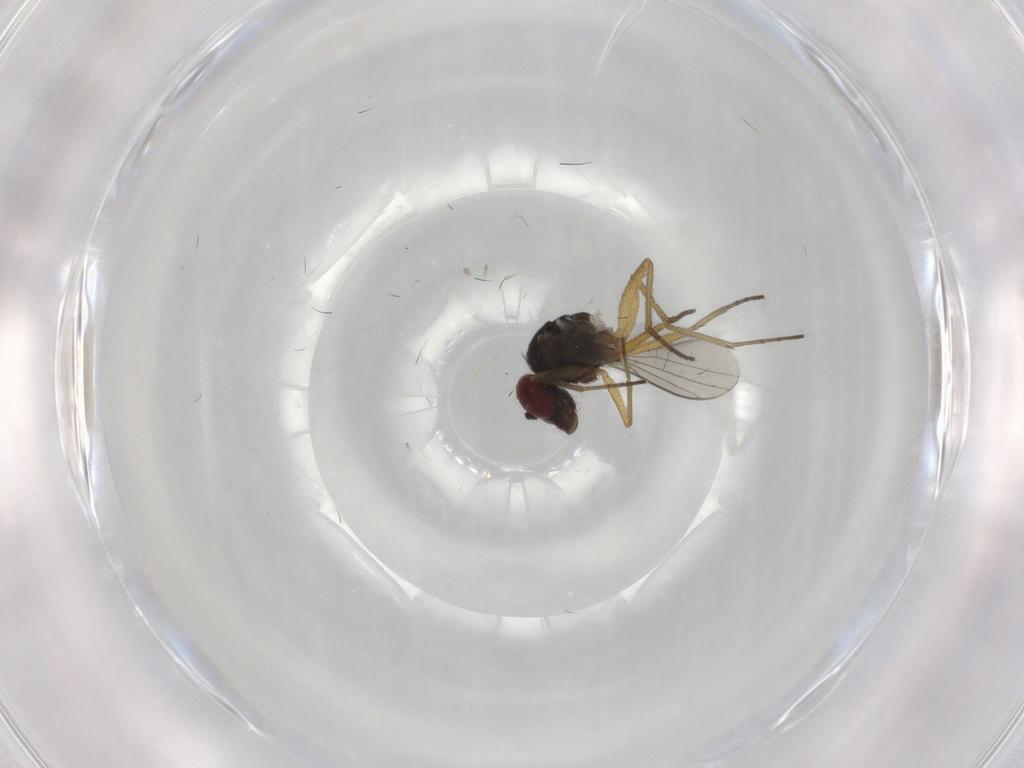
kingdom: Animalia
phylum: Arthropoda
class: Insecta
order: Diptera
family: Dolichopodidae
